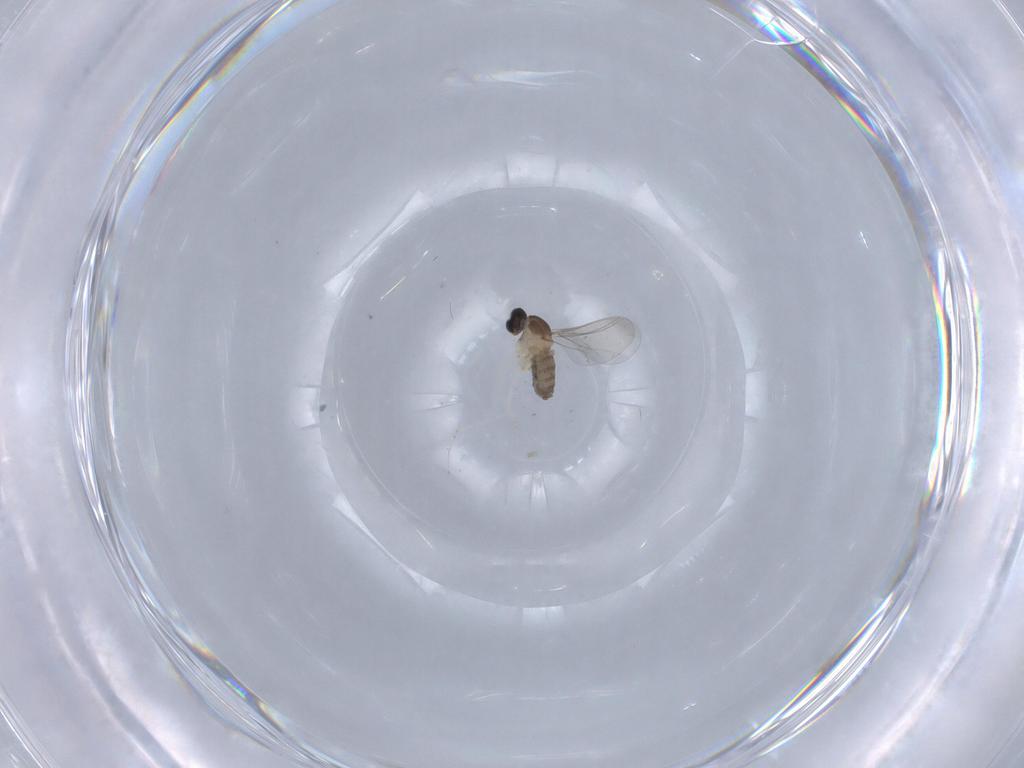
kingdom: Animalia
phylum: Arthropoda
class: Insecta
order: Diptera
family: Cecidomyiidae
